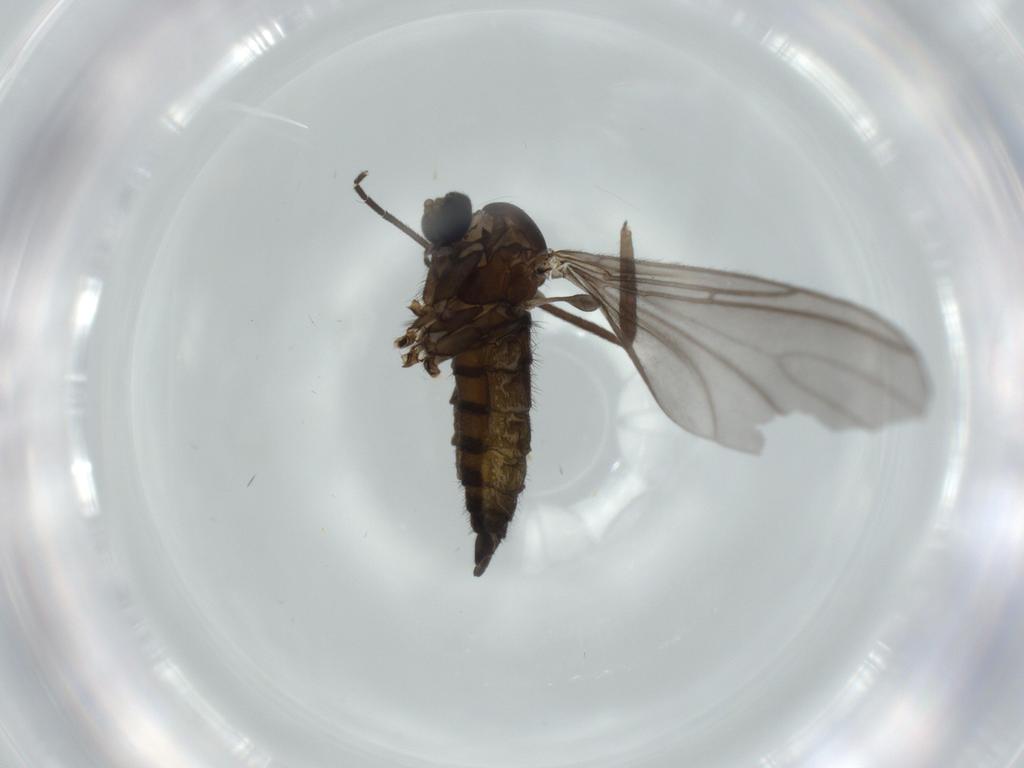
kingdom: Animalia
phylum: Arthropoda
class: Insecta
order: Diptera
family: Sciaridae
